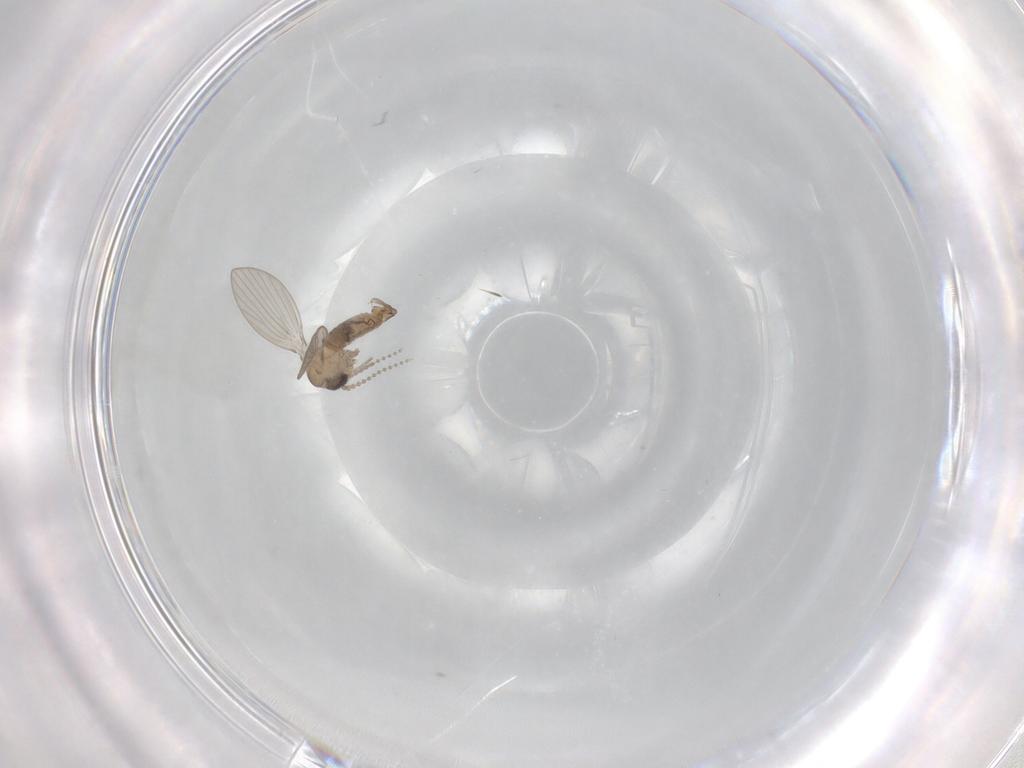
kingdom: Animalia
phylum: Arthropoda
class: Insecta
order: Diptera
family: Psychodidae
